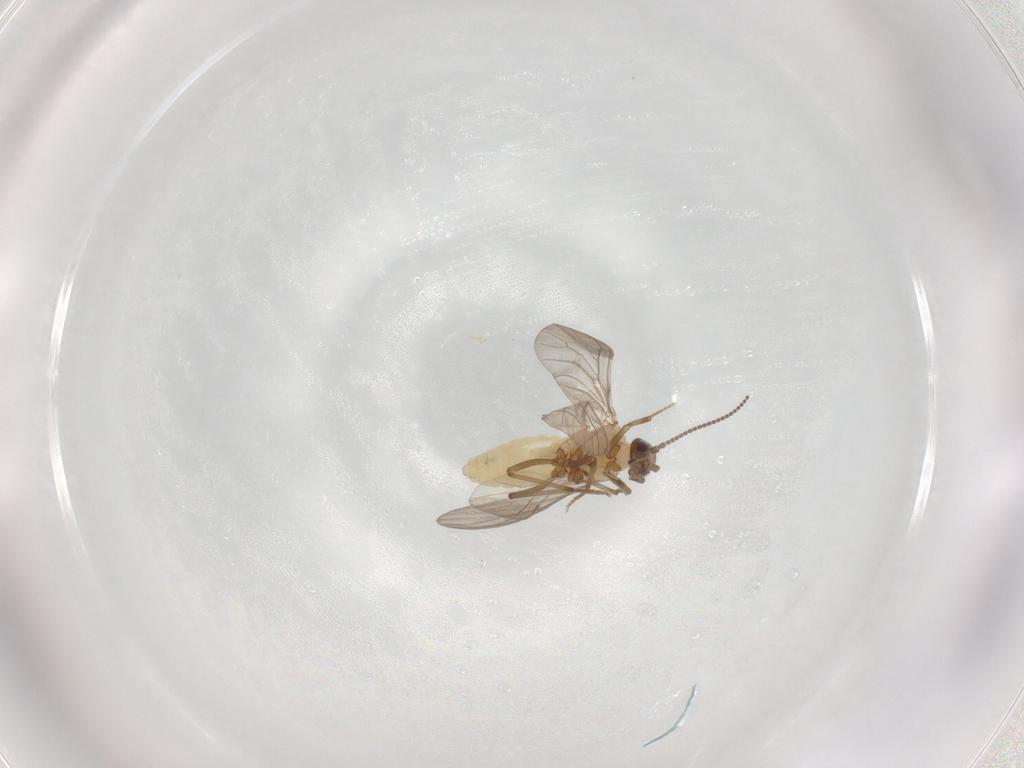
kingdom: Animalia
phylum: Arthropoda
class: Insecta
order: Neuroptera
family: Coniopterygidae
